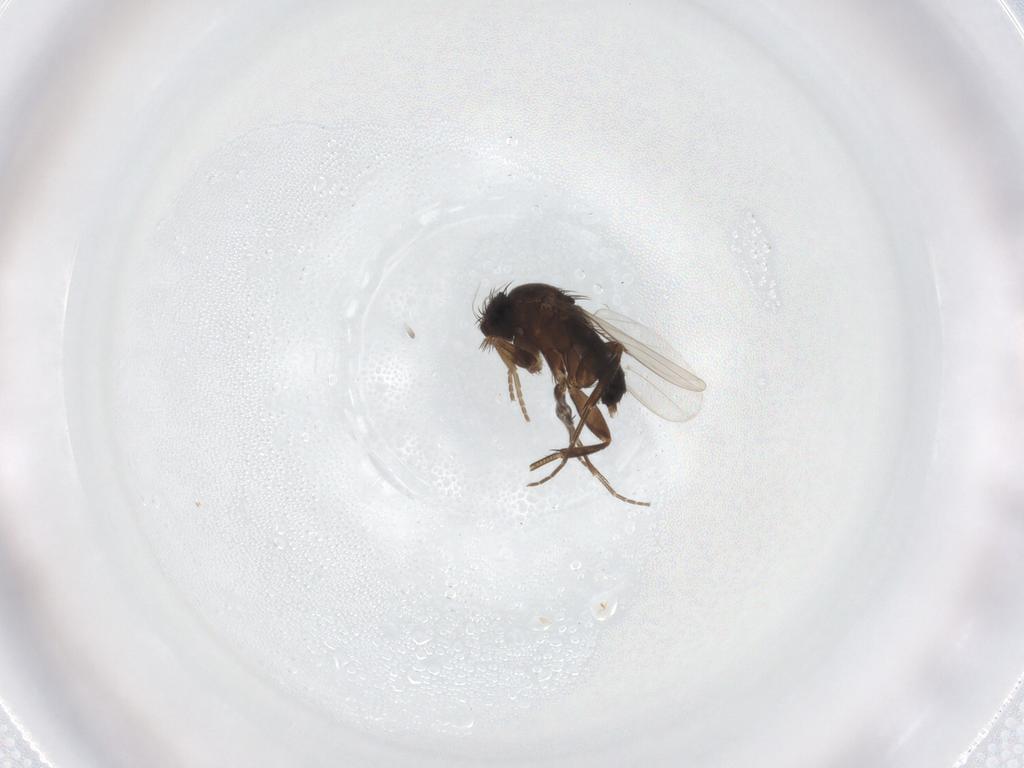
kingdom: Animalia
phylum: Arthropoda
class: Insecta
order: Diptera
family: Phoridae
